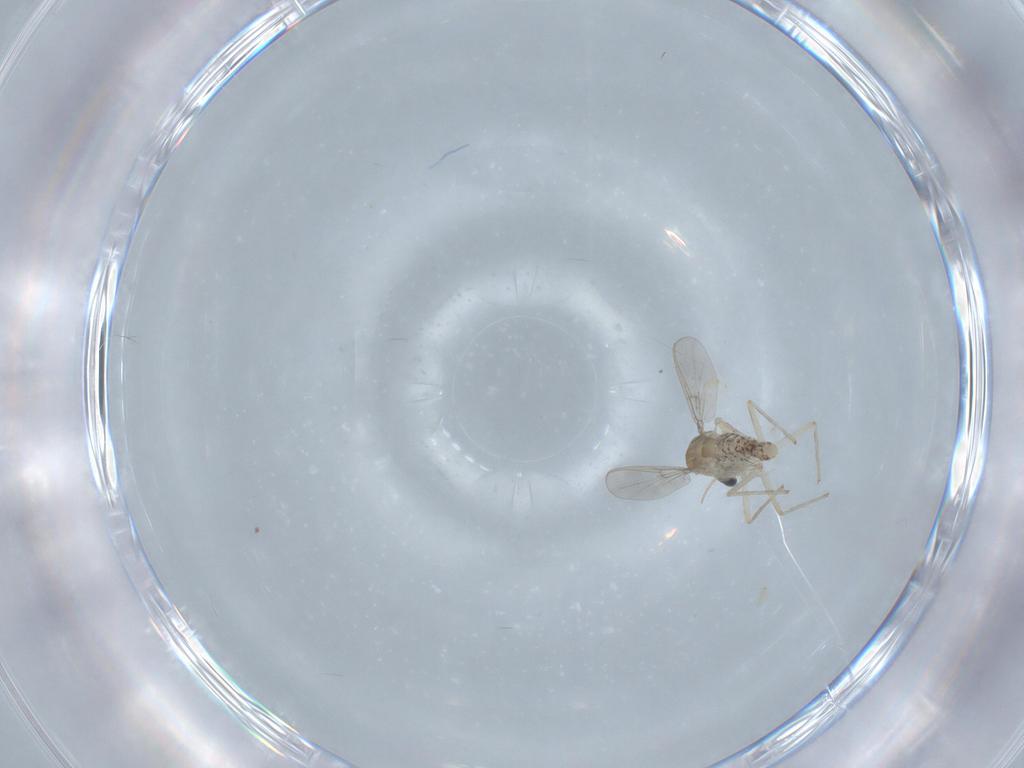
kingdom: Animalia
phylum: Arthropoda
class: Insecta
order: Diptera
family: Chironomidae
